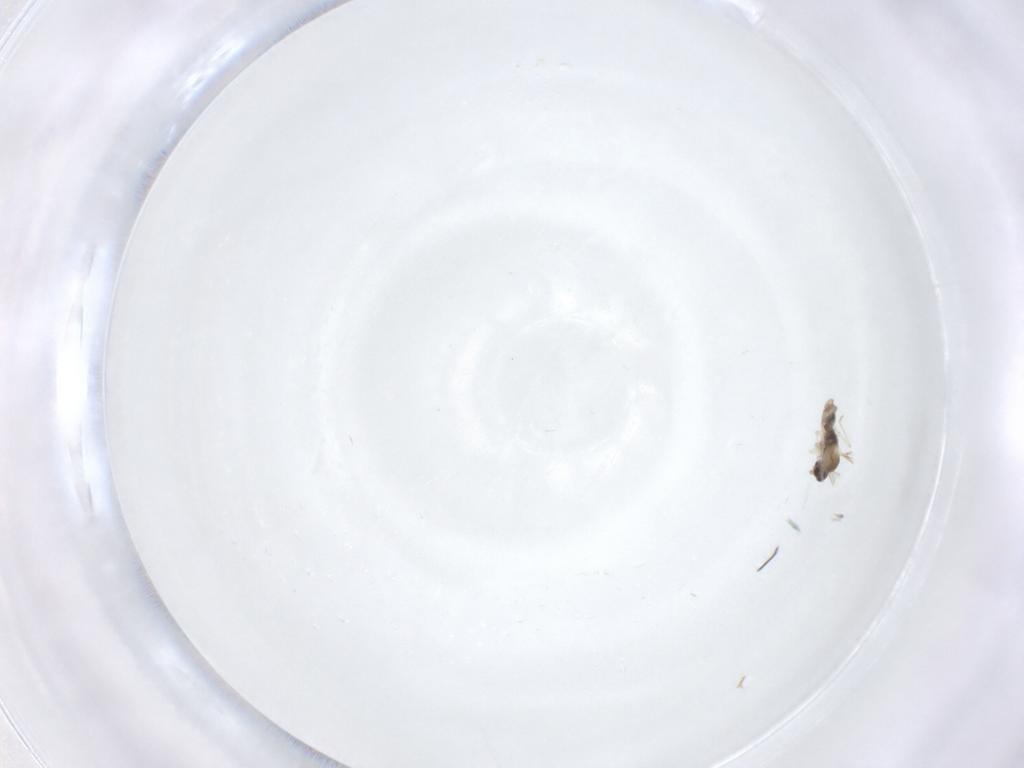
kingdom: Animalia
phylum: Arthropoda
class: Insecta
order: Diptera
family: Cecidomyiidae
